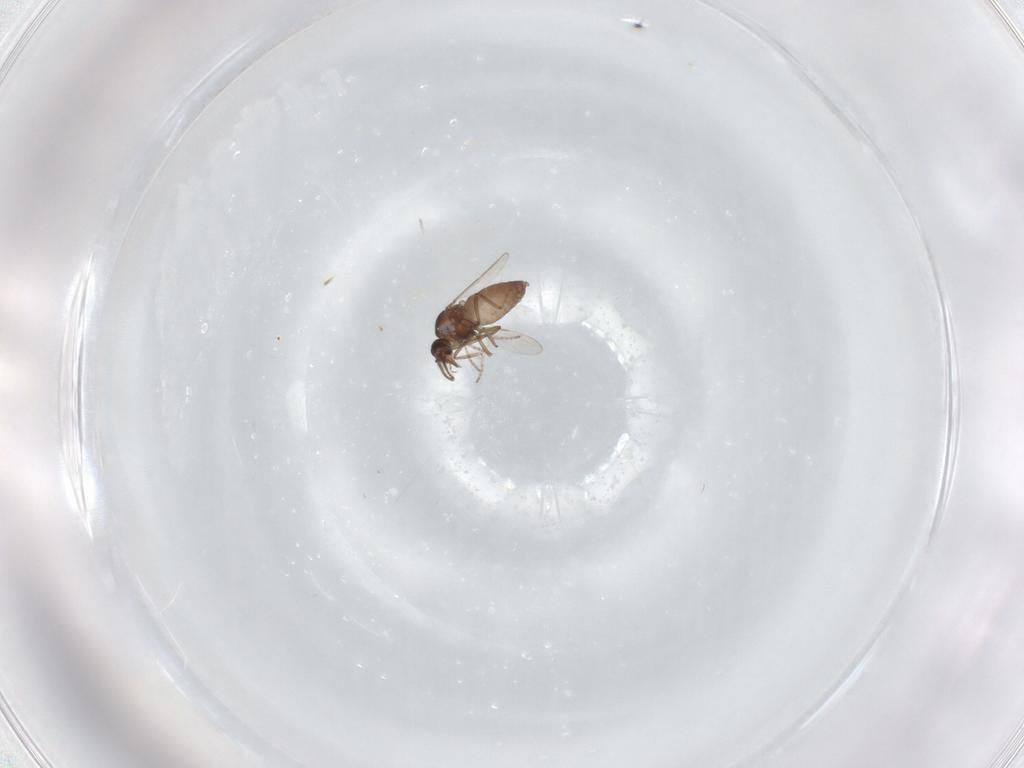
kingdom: Animalia
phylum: Arthropoda
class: Insecta
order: Diptera
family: Ceratopogonidae
